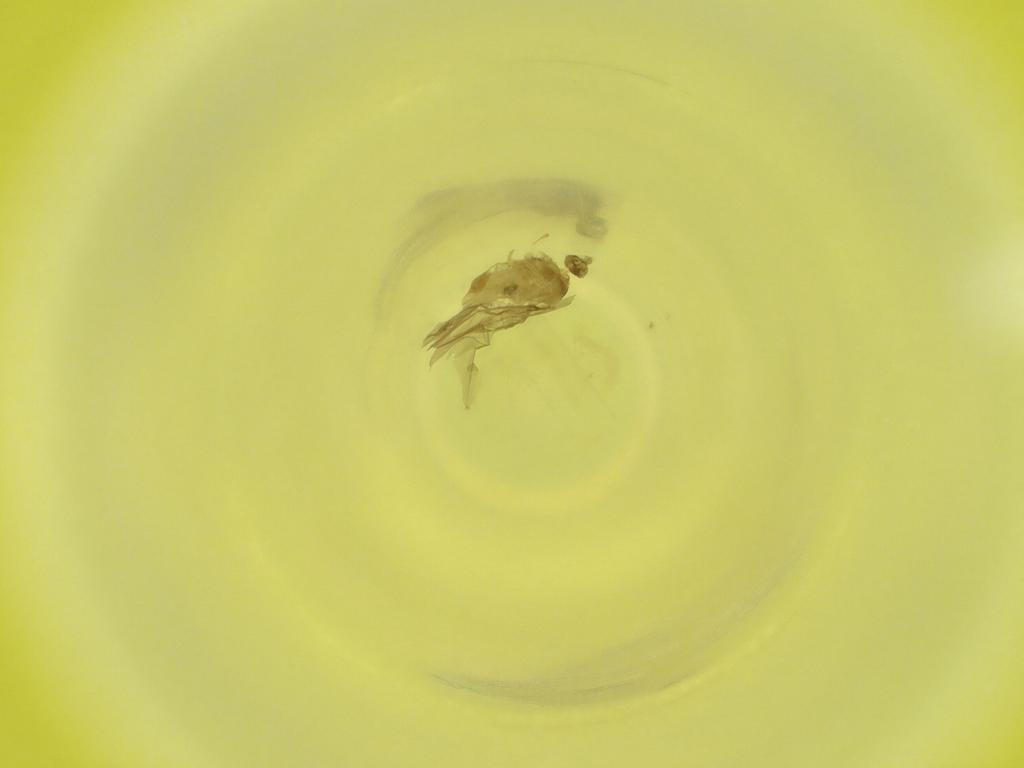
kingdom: Animalia
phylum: Arthropoda
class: Insecta
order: Diptera
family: Cecidomyiidae
